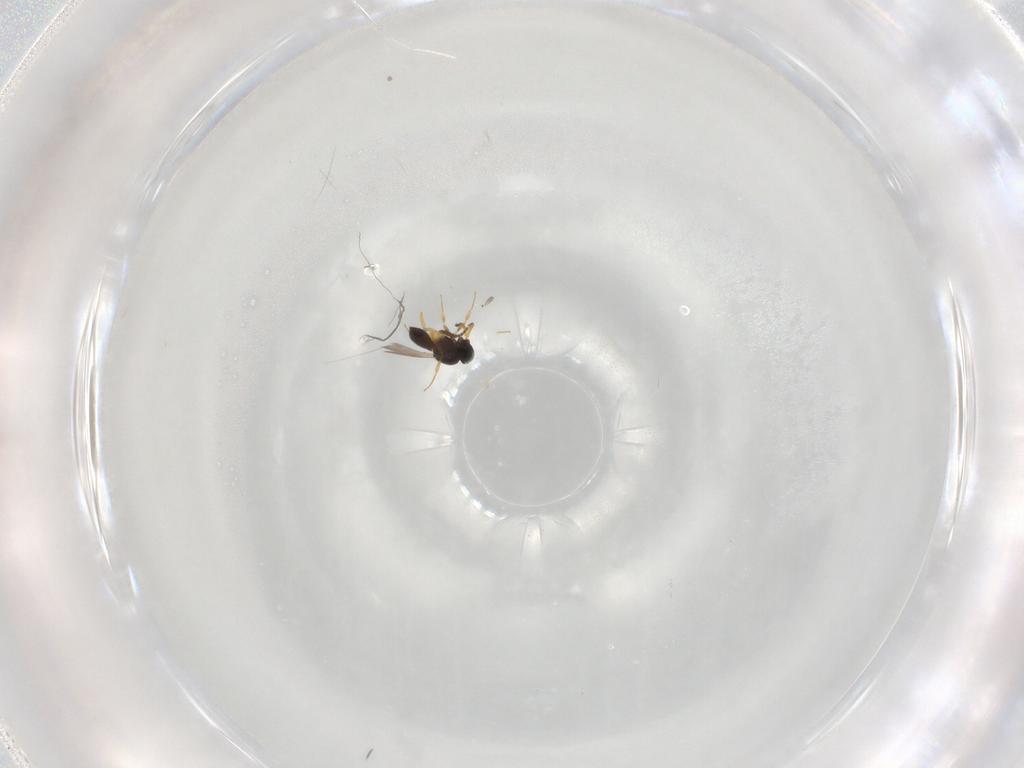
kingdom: Animalia
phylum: Arthropoda
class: Insecta
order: Hymenoptera
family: Scelionidae
